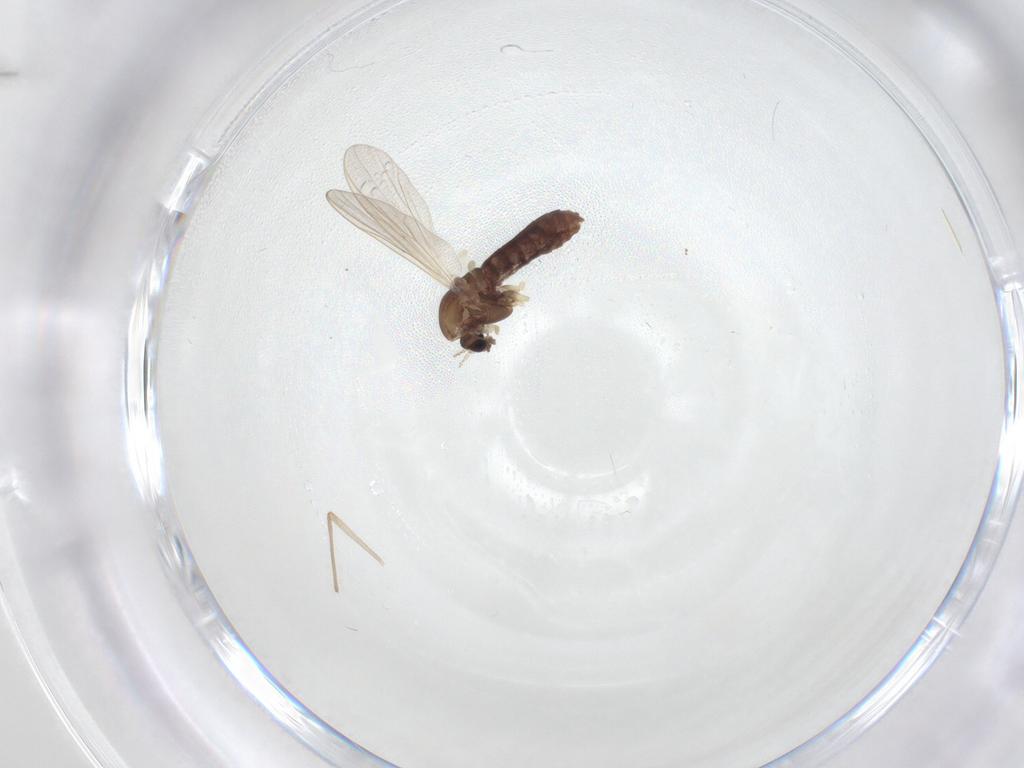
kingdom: Animalia
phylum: Arthropoda
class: Insecta
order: Diptera
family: Chironomidae
